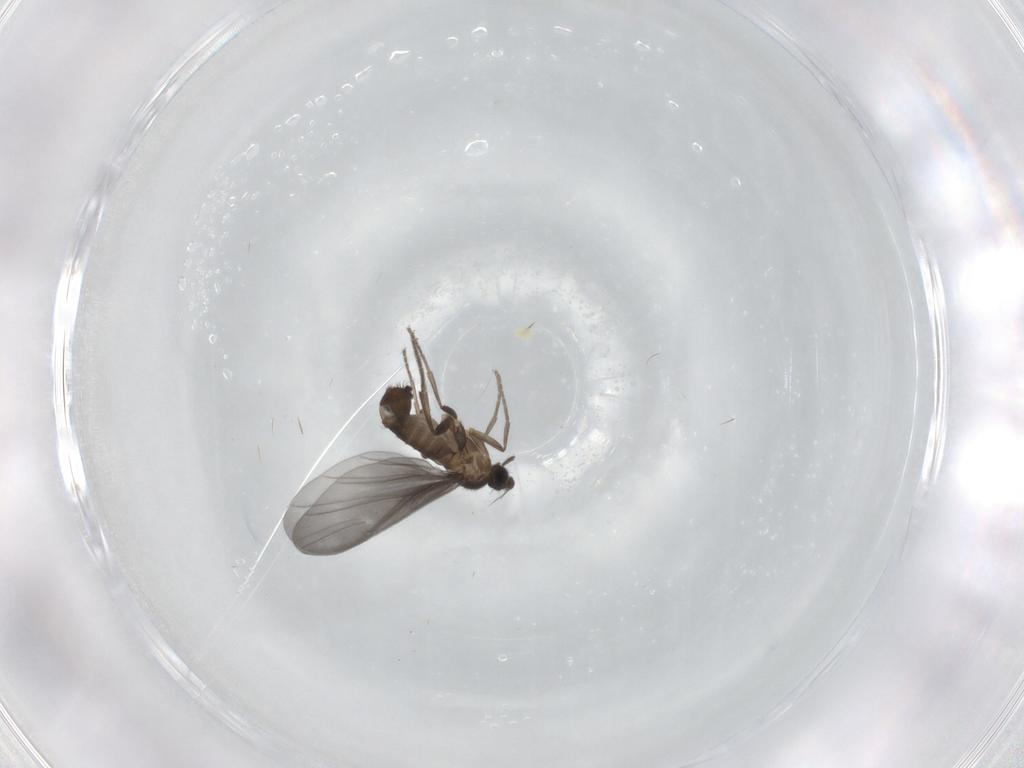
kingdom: Animalia
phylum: Arthropoda
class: Insecta
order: Diptera
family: Phoridae
